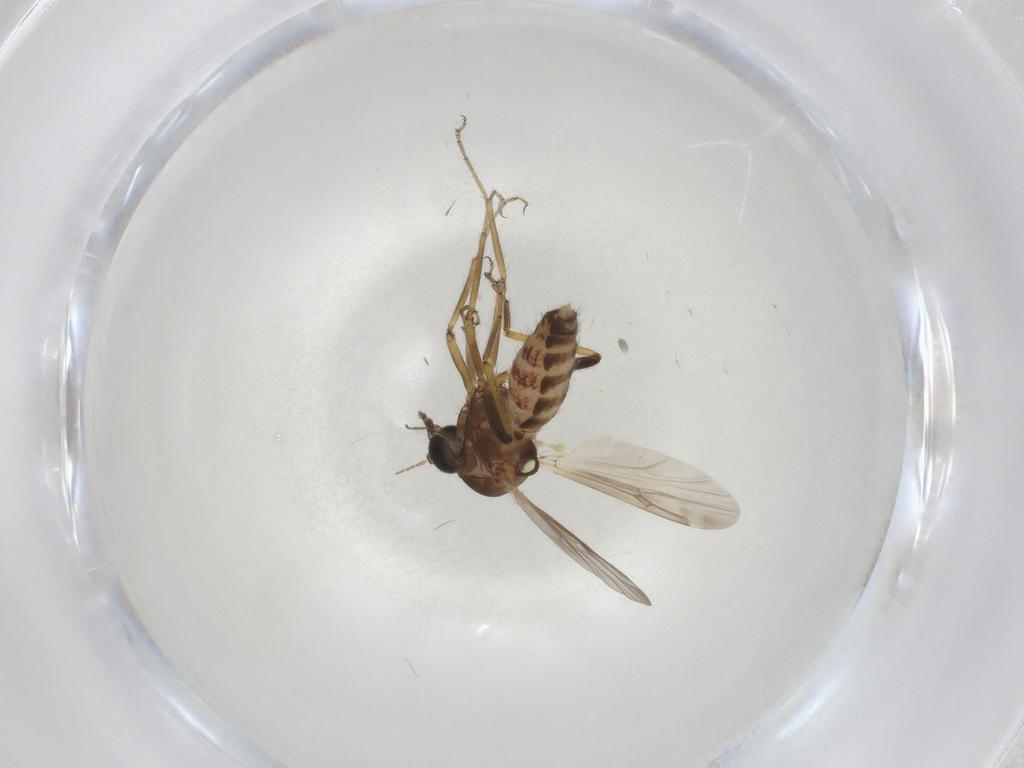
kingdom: Animalia
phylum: Arthropoda
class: Insecta
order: Diptera
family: Ceratopogonidae
